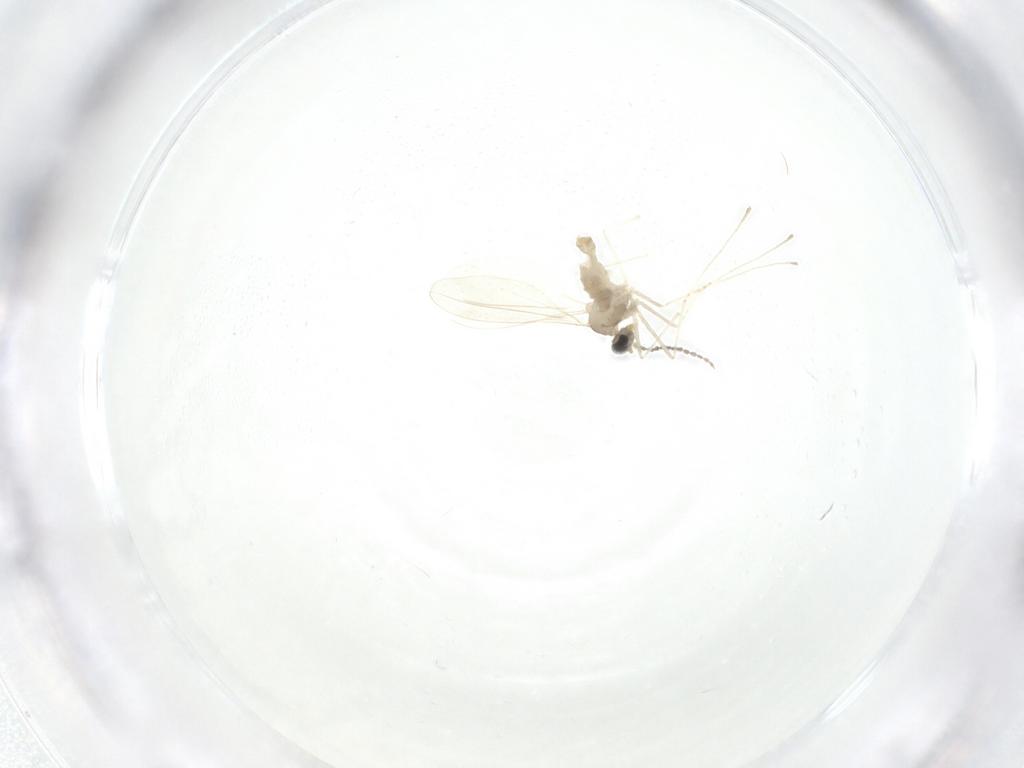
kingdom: Animalia
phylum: Arthropoda
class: Insecta
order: Diptera
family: Cecidomyiidae
